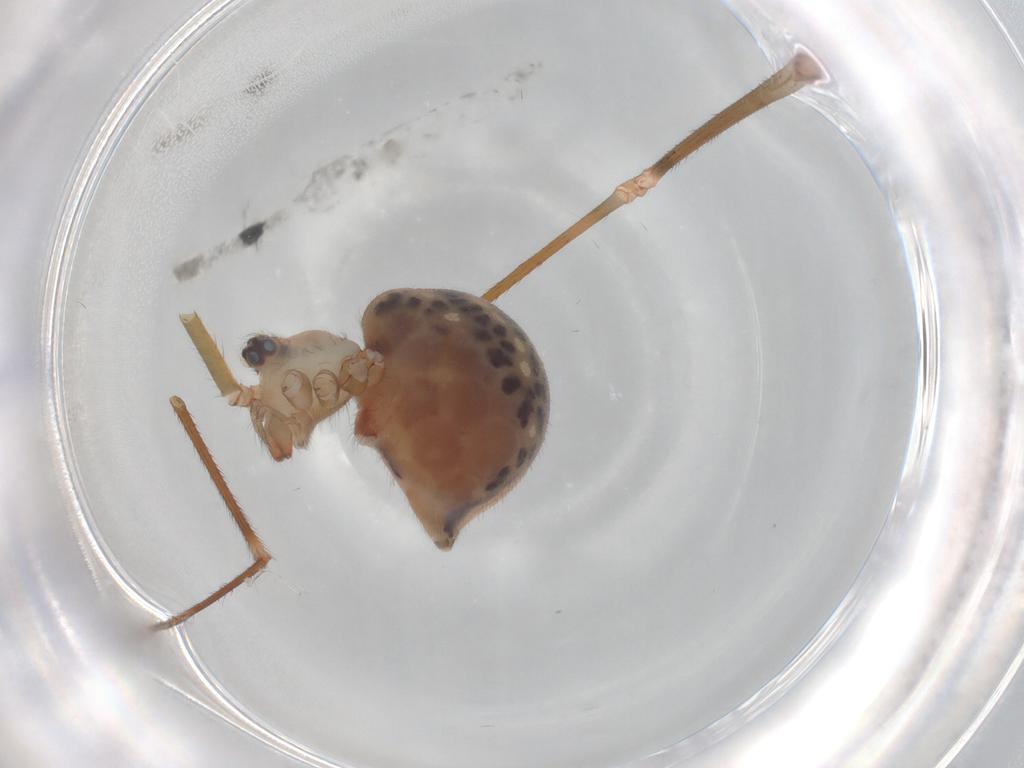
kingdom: Animalia
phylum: Arthropoda
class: Arachnida
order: Araneae
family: Pholcidae
